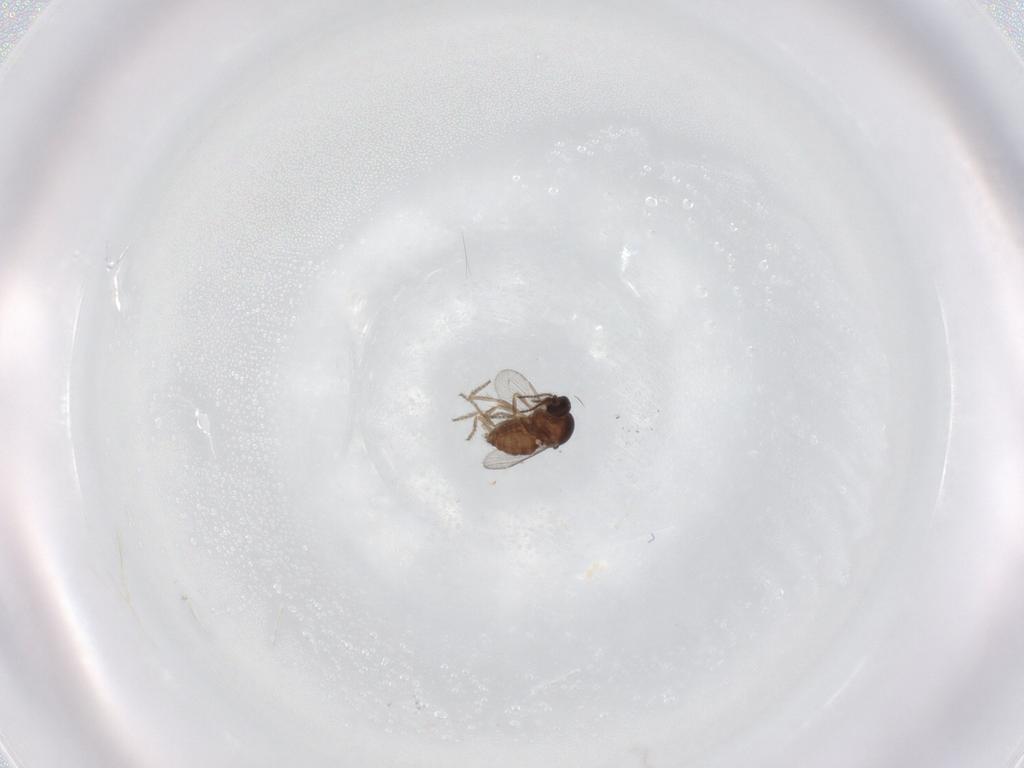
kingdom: Animalia
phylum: Arthropoda
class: Insecta
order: Diptera
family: Ceratopogonidae
